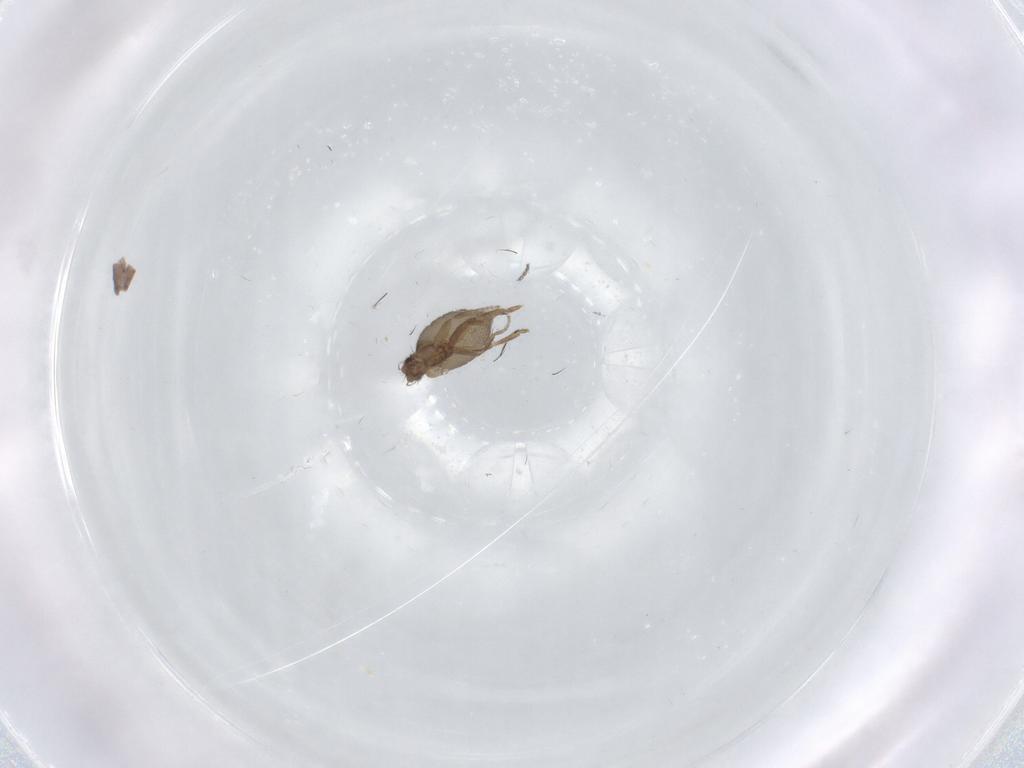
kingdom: Animalia
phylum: Arthropoda
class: Insecta
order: Diptera
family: Sciaridae
